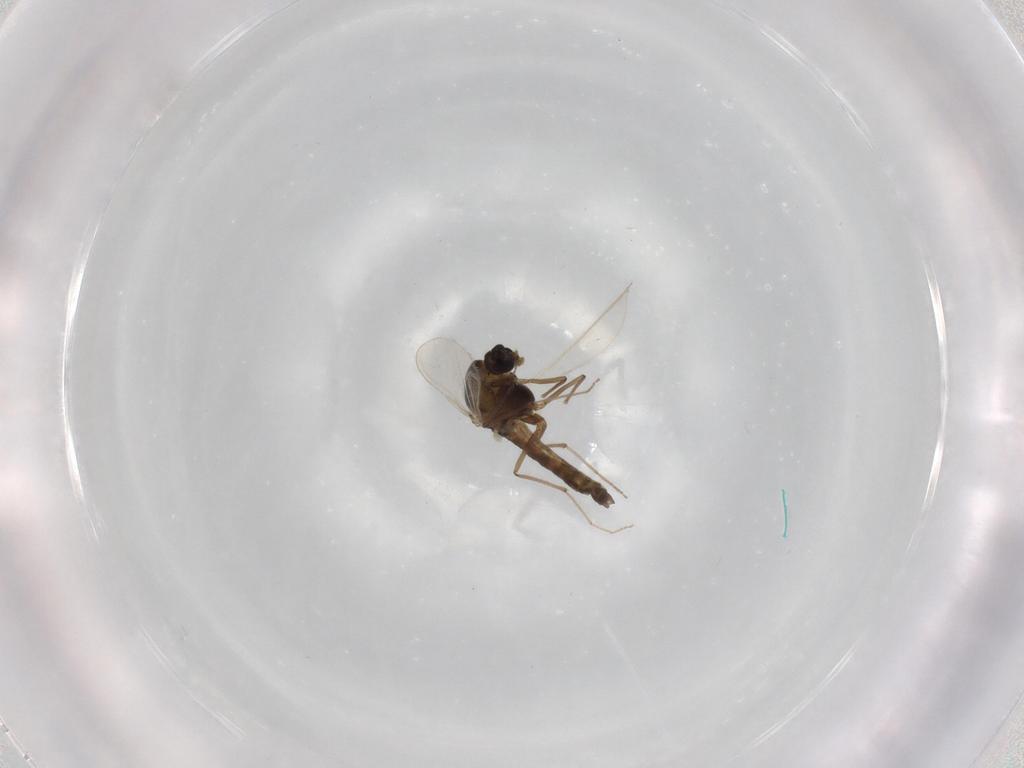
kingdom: Animalia
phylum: Arthropoda
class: Insecta
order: Diptera
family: Chironomidae
